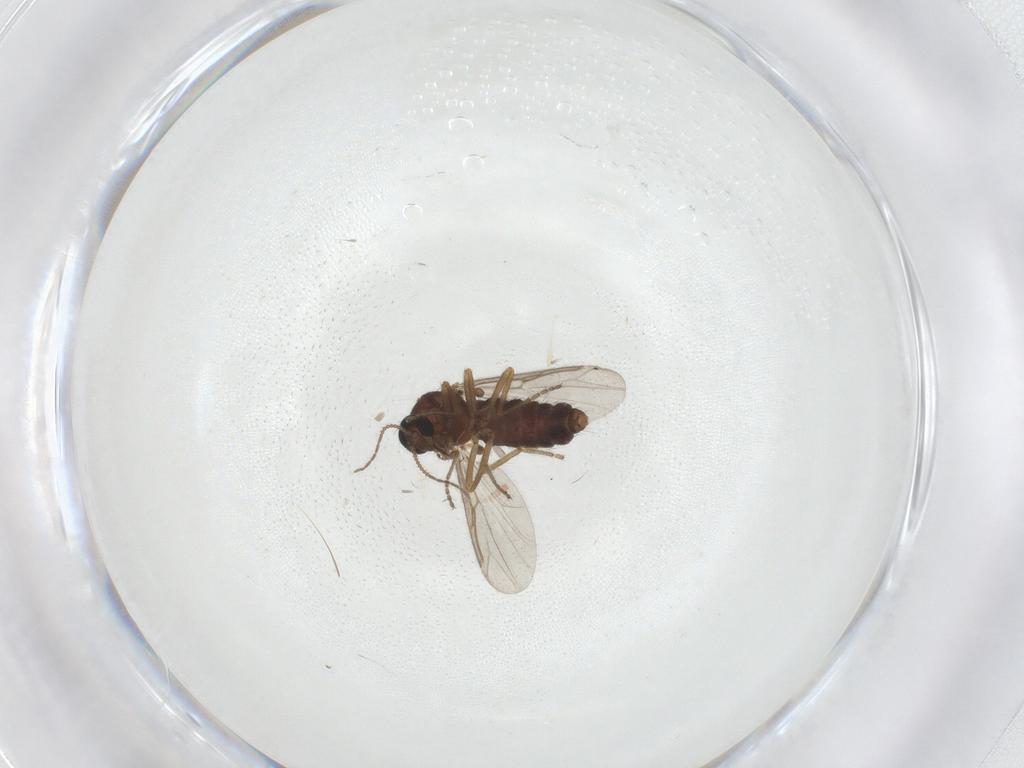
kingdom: Animalia
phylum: Arthropoda
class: Insecta
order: Diptera
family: Ceratopogonidae
